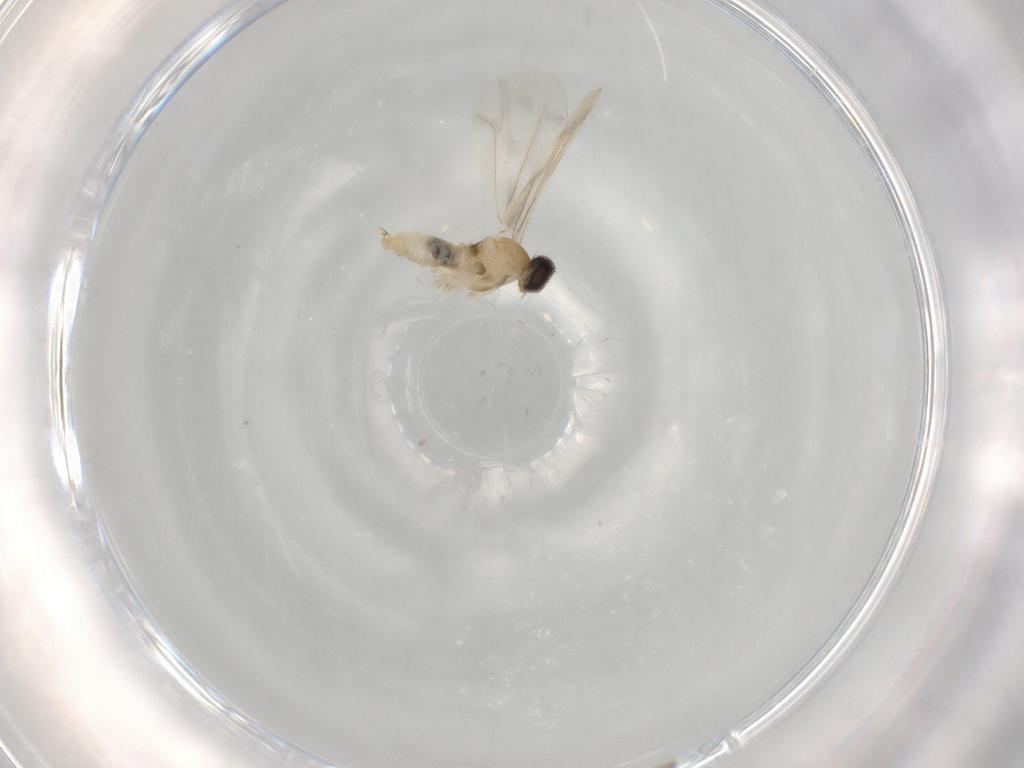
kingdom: Animalia
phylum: Arthropoda
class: Insecta
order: Diptera
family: Cecidomyiidae
